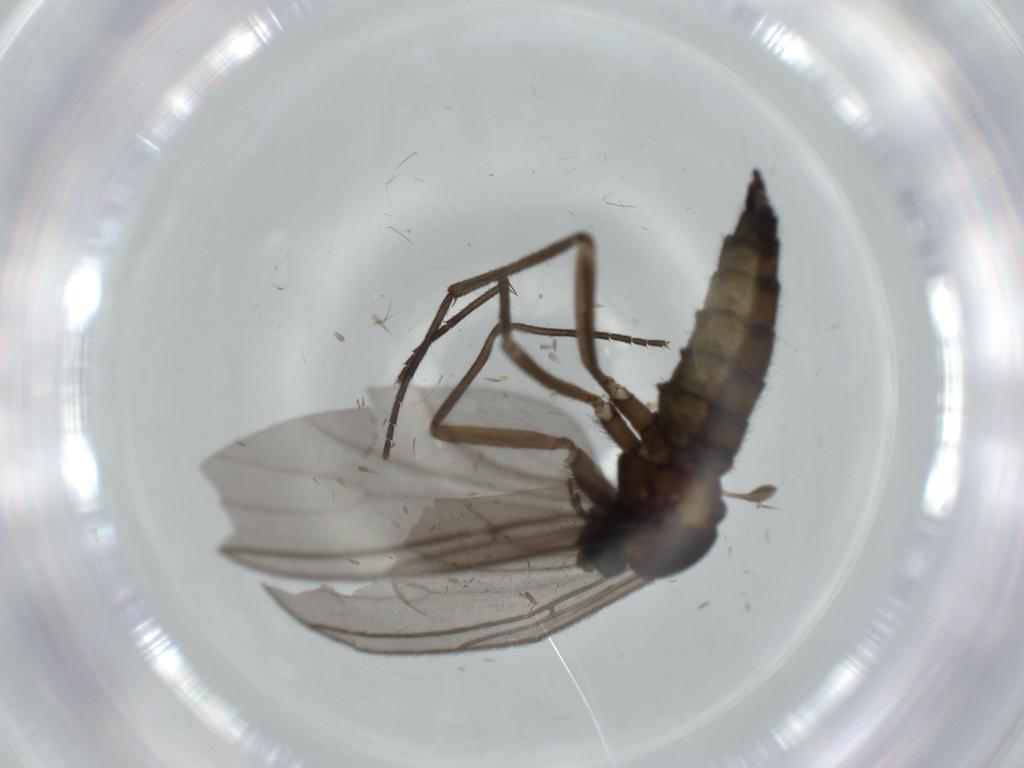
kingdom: Animalia
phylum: Arthropoda
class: Insecta
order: Diptera
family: Sciaridae
